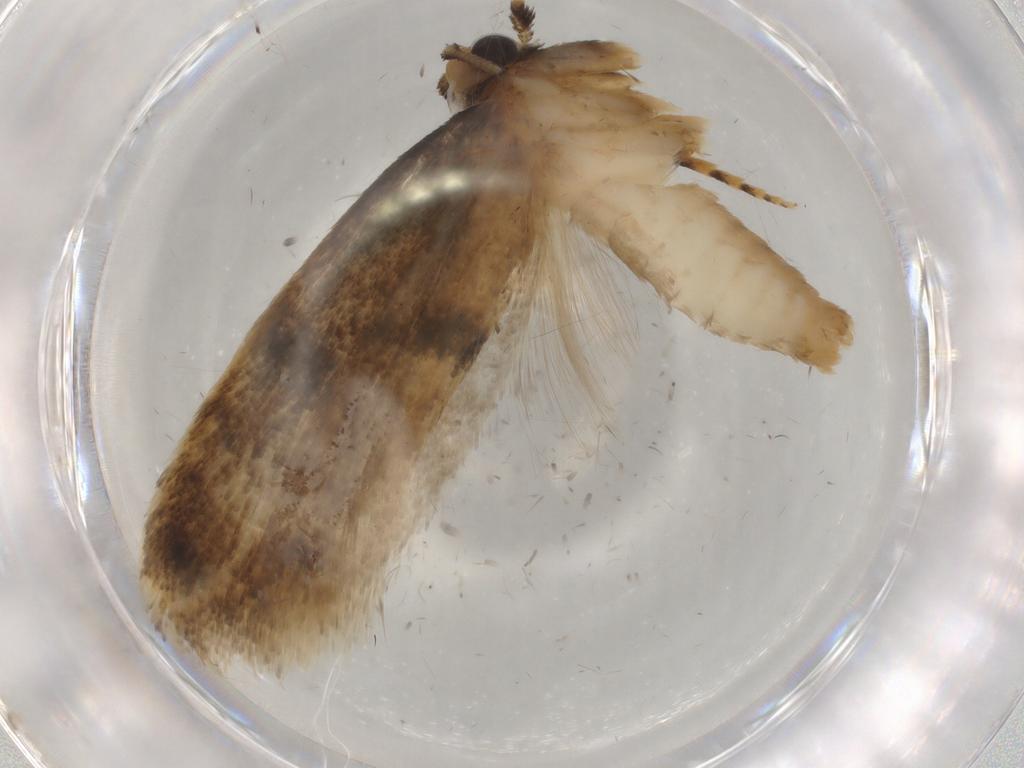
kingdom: Animalia
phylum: Arthropoda
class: Insecta
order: Lepidoptera
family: Tineidae
